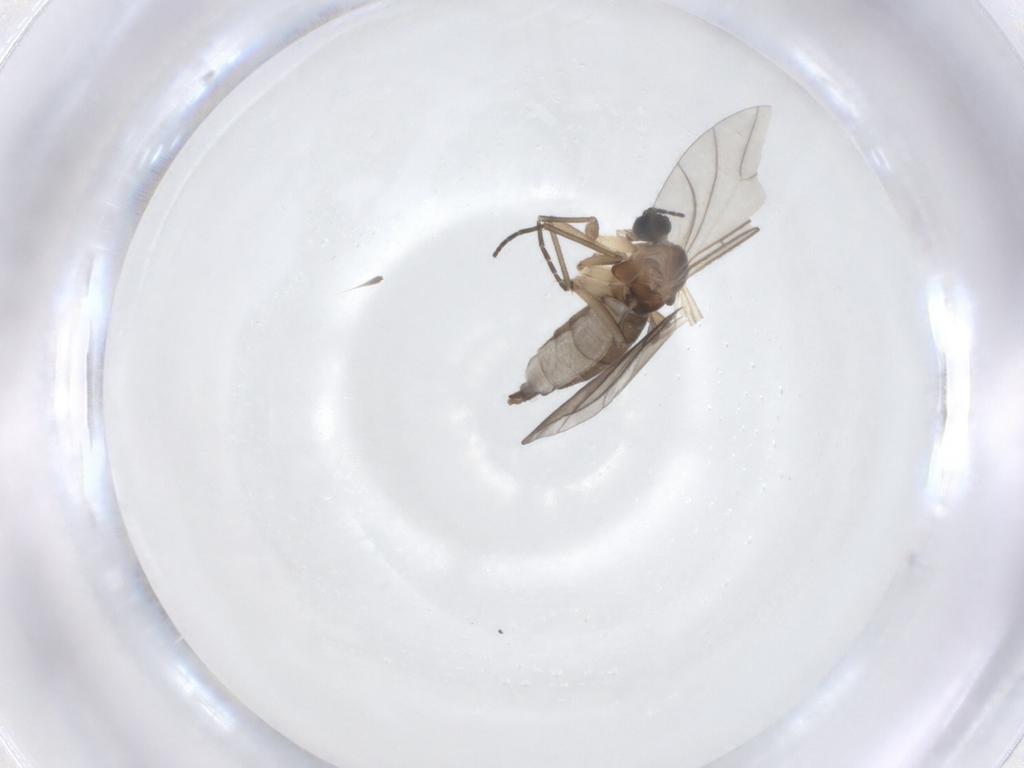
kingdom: Animalia
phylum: Arthropoda
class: Insecta
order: Diptera
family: Sciaridae
